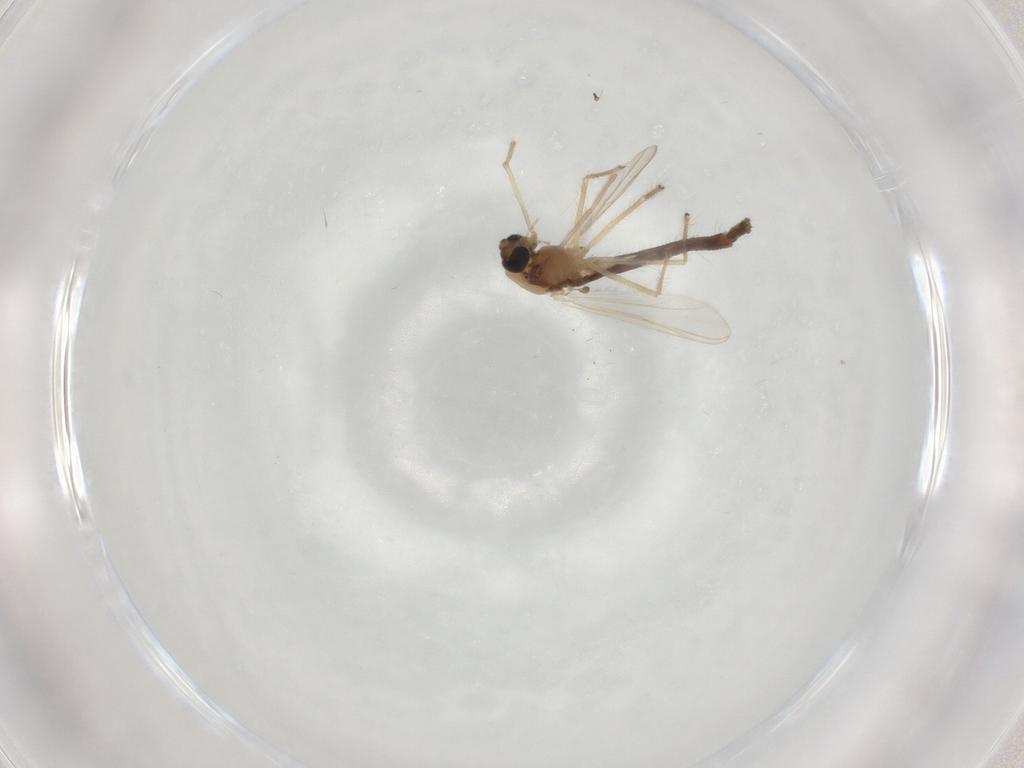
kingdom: Animalia
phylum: Arthropoda
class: Insecta
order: Diptera
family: Chironomidae
